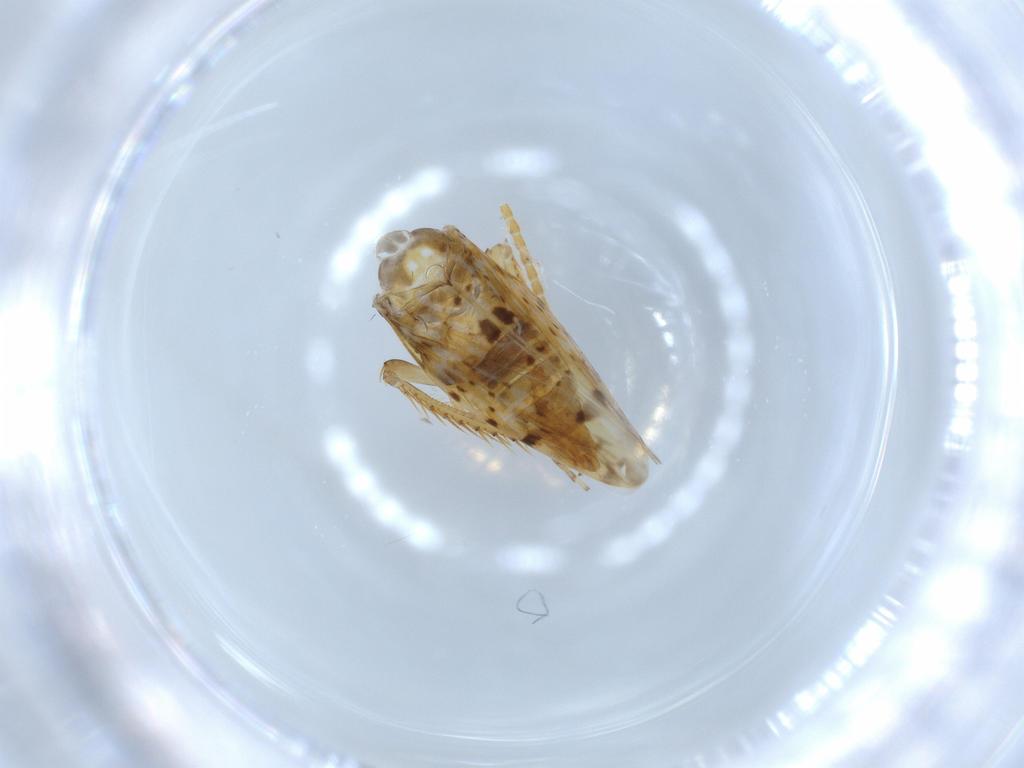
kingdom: Animalia
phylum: Arthropoda
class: Insecta
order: Hemiptera
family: Cicadellidae
